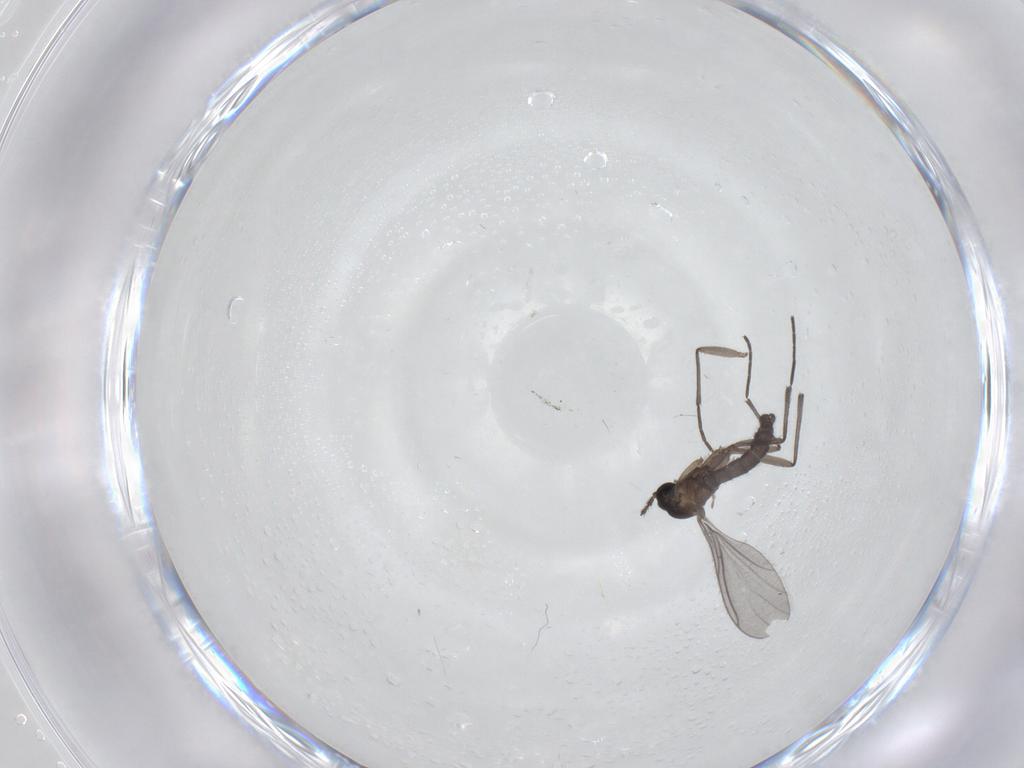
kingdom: Animalia
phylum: Arthropoda
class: Insecta
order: Diptera
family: Sciaridae
